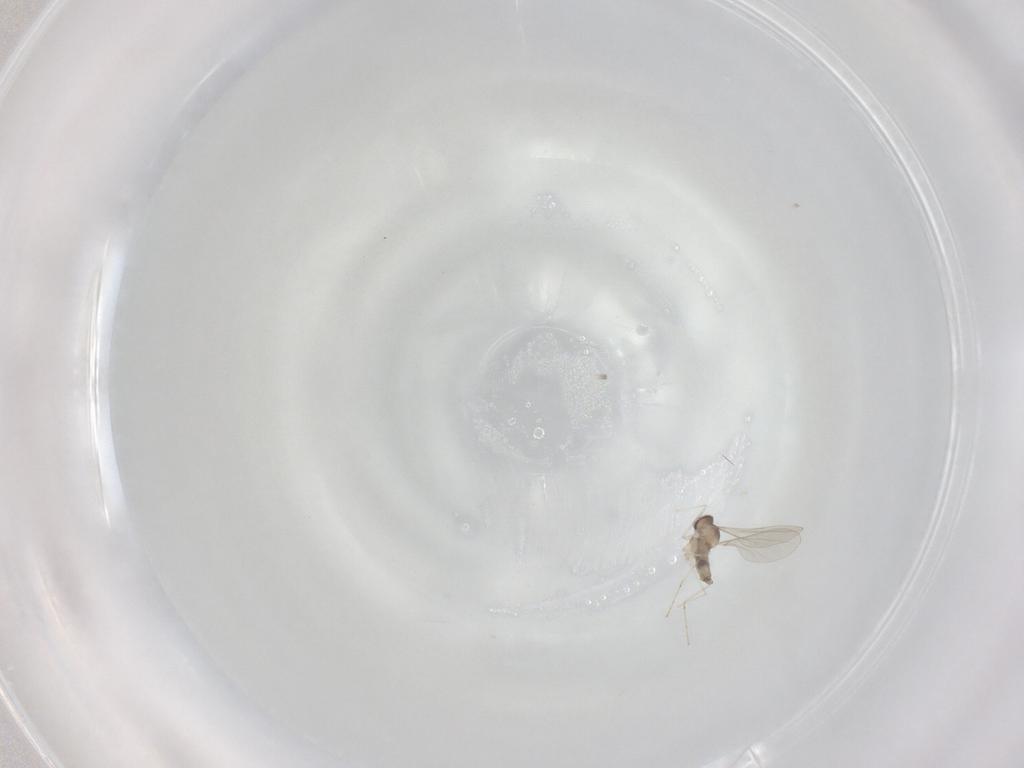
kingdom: Animalia
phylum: Arthropoda
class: Insecta
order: Diptera
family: Cecidomyiidae
